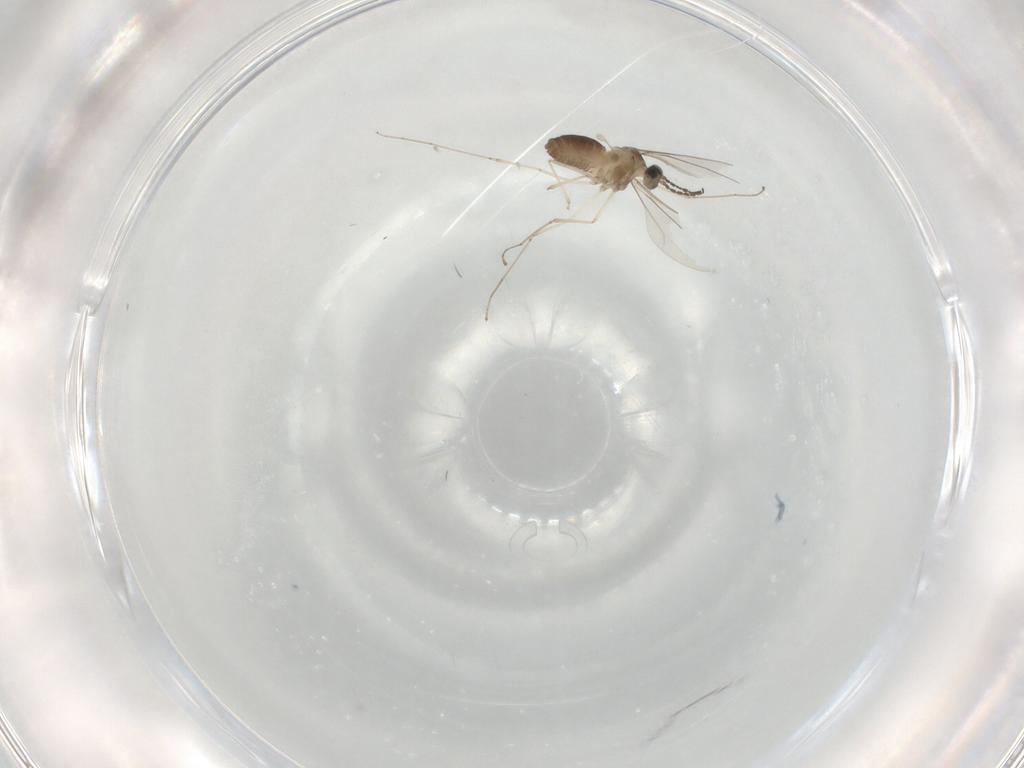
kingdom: Animalia
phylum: Arthropoda
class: Insecta
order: Diptera
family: Cecidomyiidae
